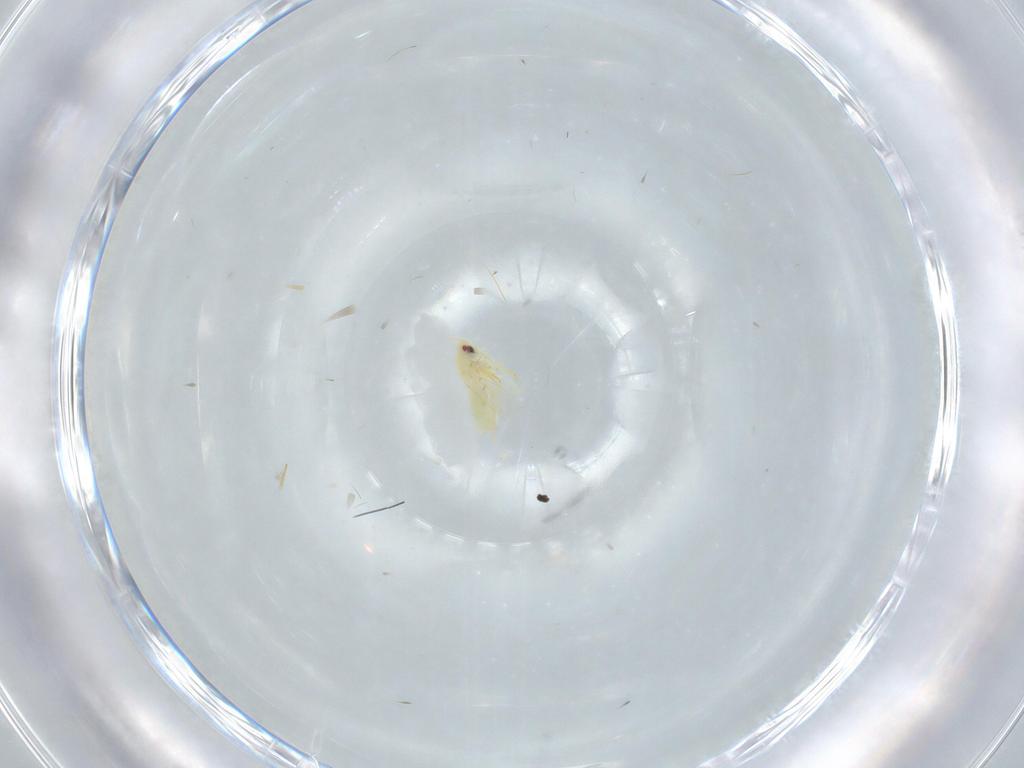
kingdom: Animalia
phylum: Arthropoda
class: Insecta
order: Hemiptera
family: Aleyrodidae
